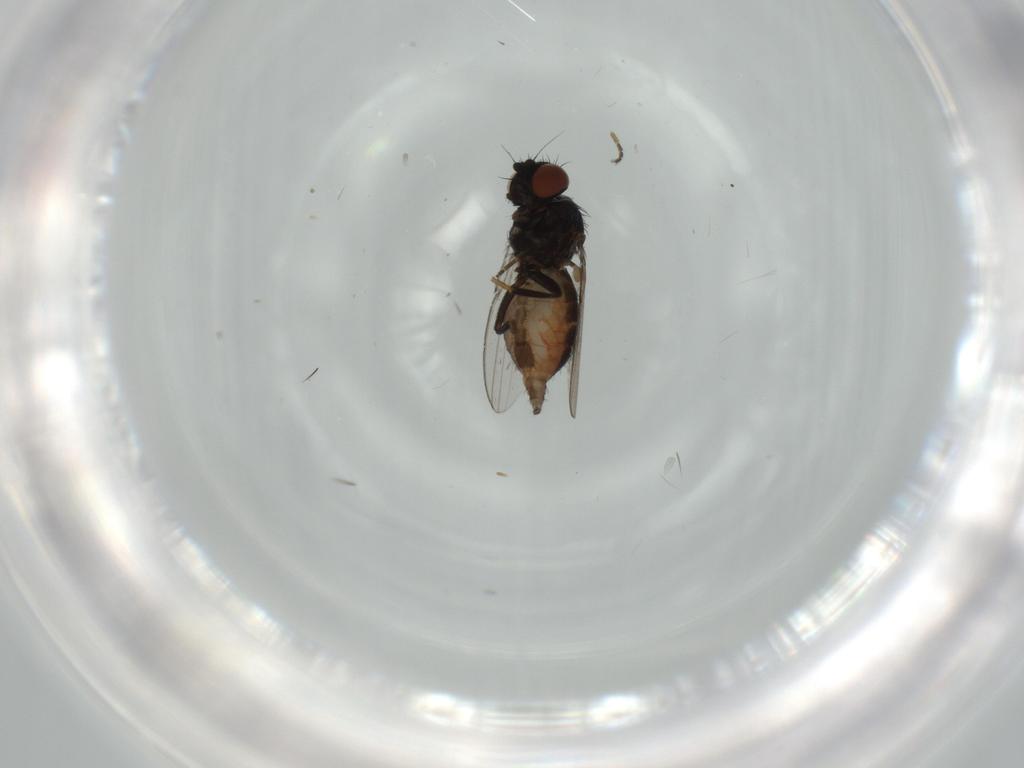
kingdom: Animalia
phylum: Arthropoda
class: Insecta
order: Diptera
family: Milichiidae
